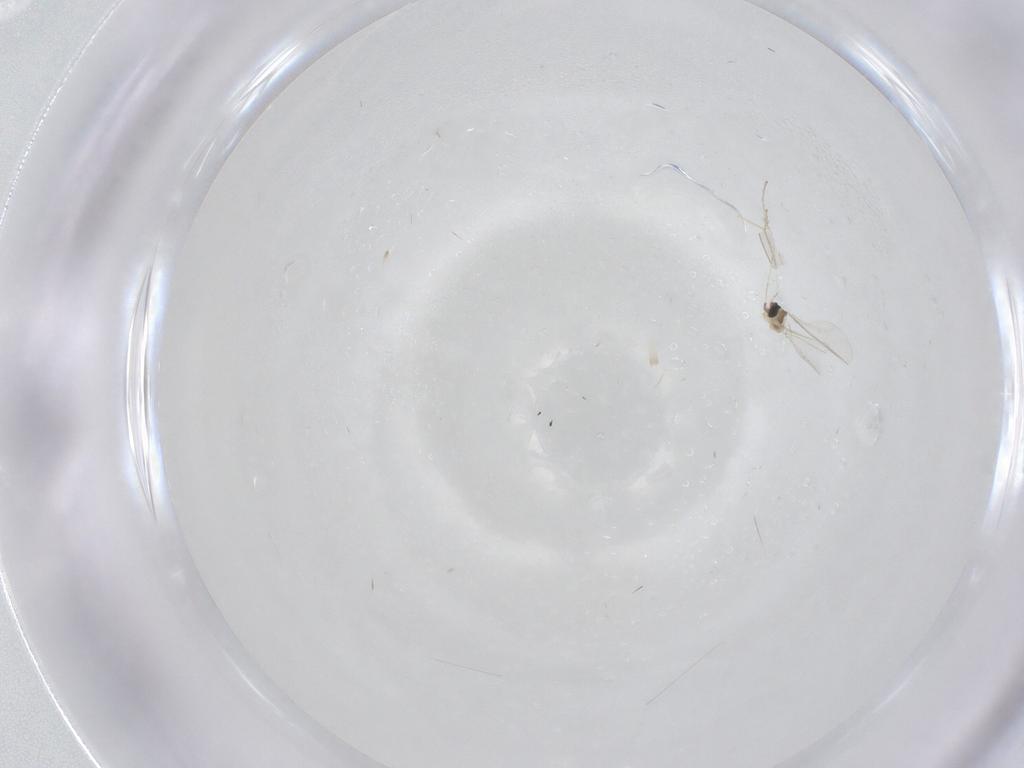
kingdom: Animalia
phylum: Arthropoda
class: Insecta
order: Diptera
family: Cecidomyiidae
